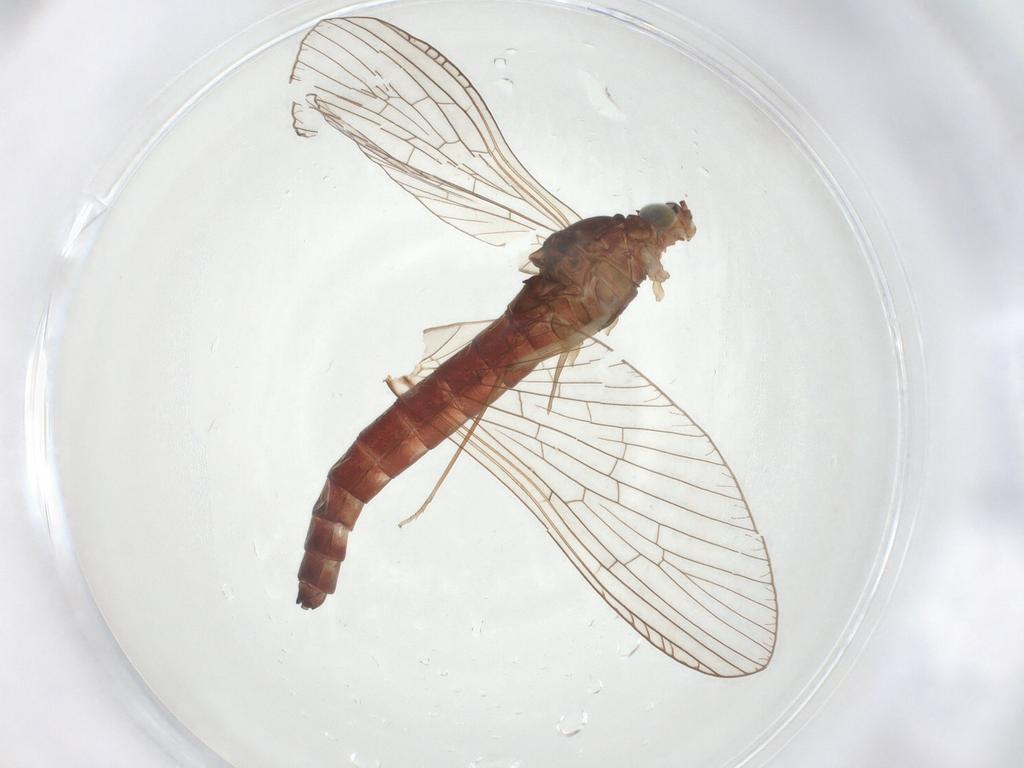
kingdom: Animalia
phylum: Arthropoda
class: Insecta
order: Ephemeroptera
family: Baetidae
